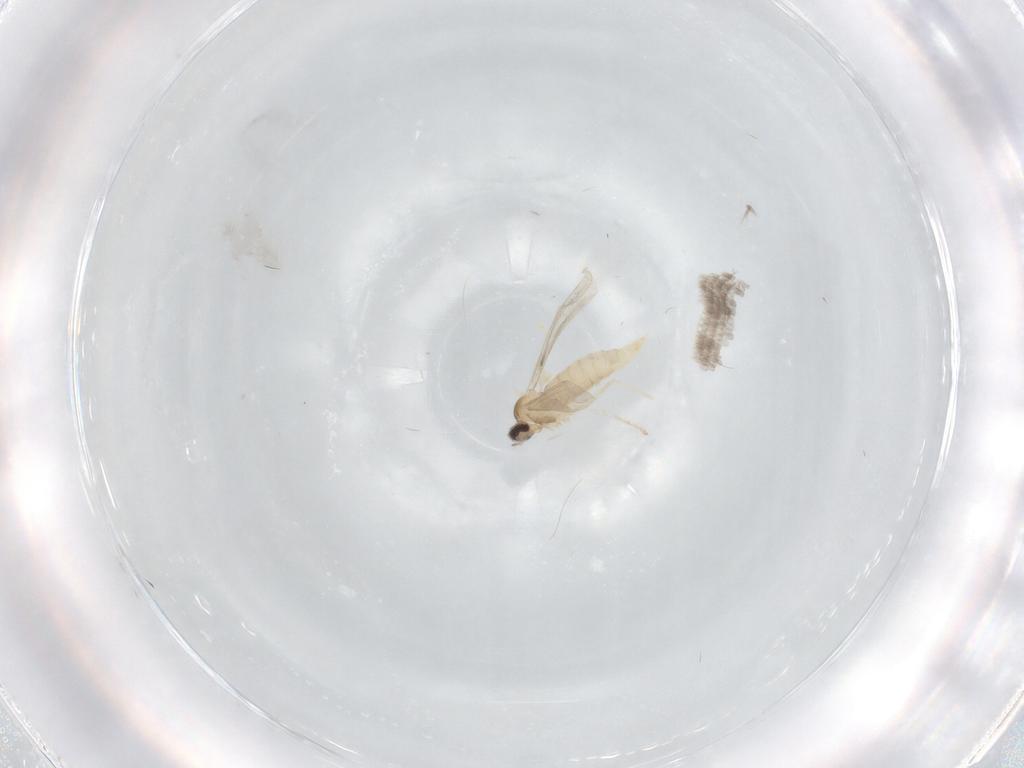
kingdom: Animalia
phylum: Arthropoda
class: Insecta
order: Diptera
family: Cecidomyiidae
